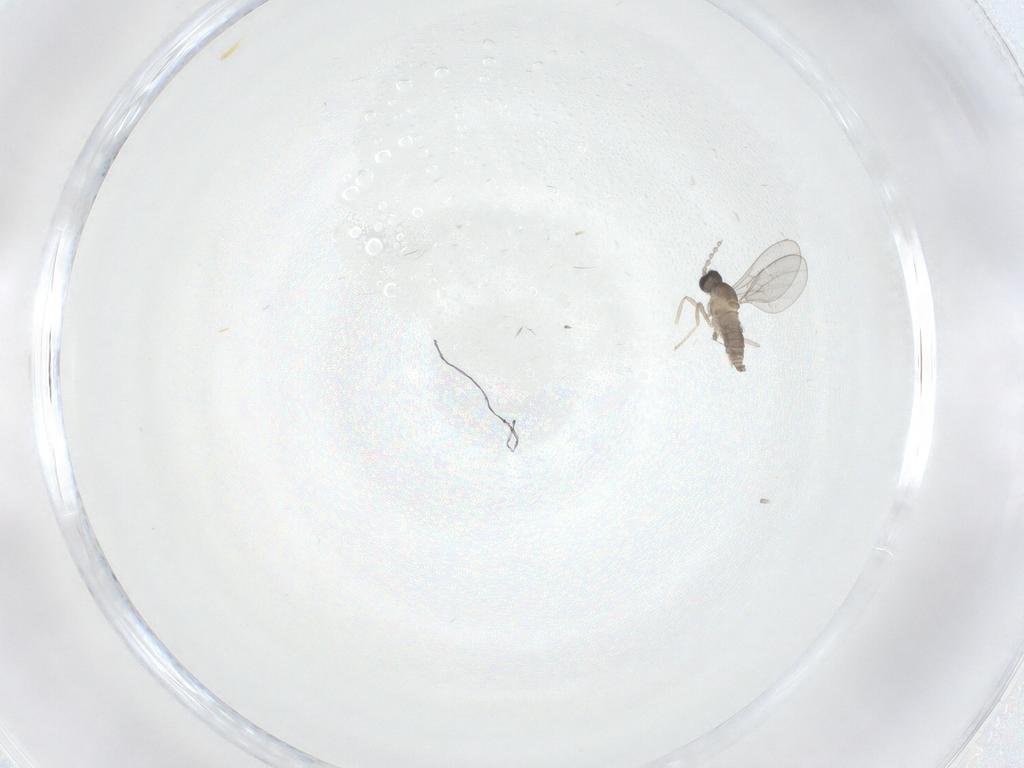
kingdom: Animalia
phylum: Arthropoda
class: Insecta
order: Diptera
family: Cecidomyiidae
